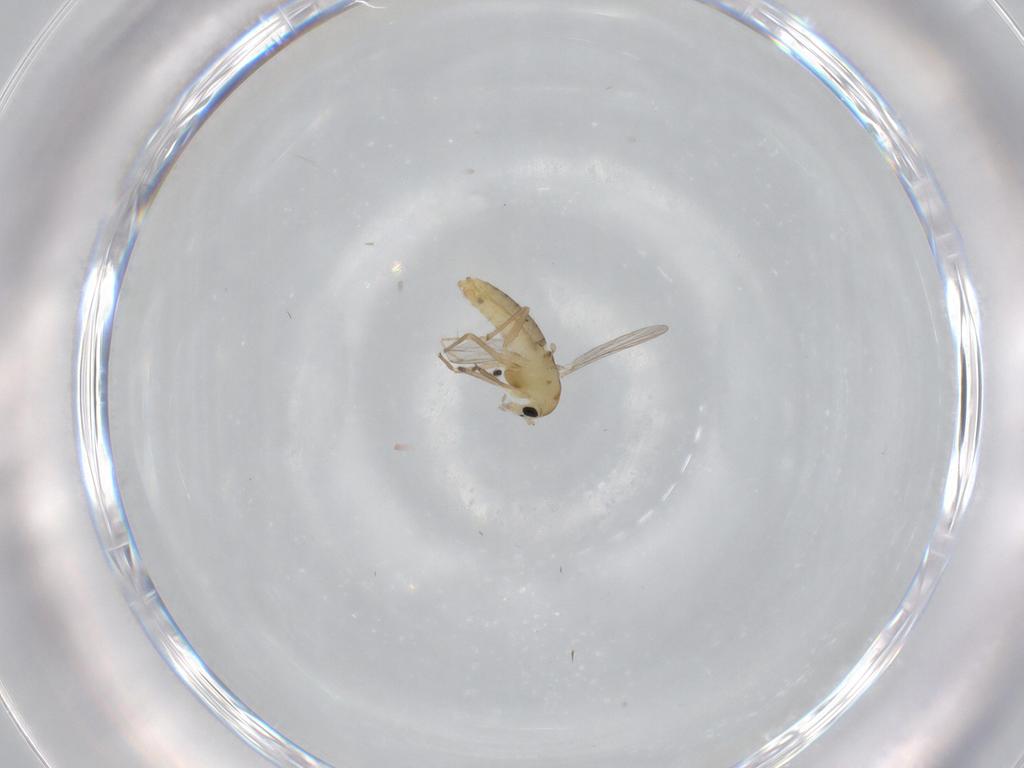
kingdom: Animalia
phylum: Arthropoda
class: Insecta
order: Diptera
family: Chironomidae
